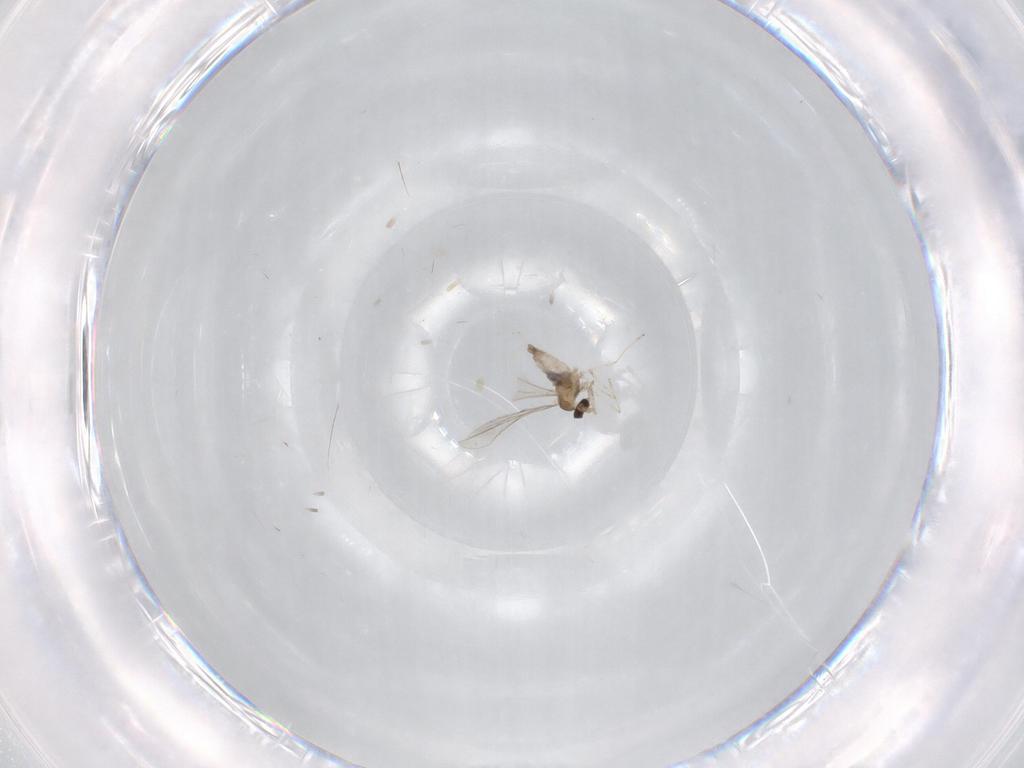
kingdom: Animalia
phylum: Arthropoda
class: Insecta
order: Diptera
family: Cecidomyiidae
